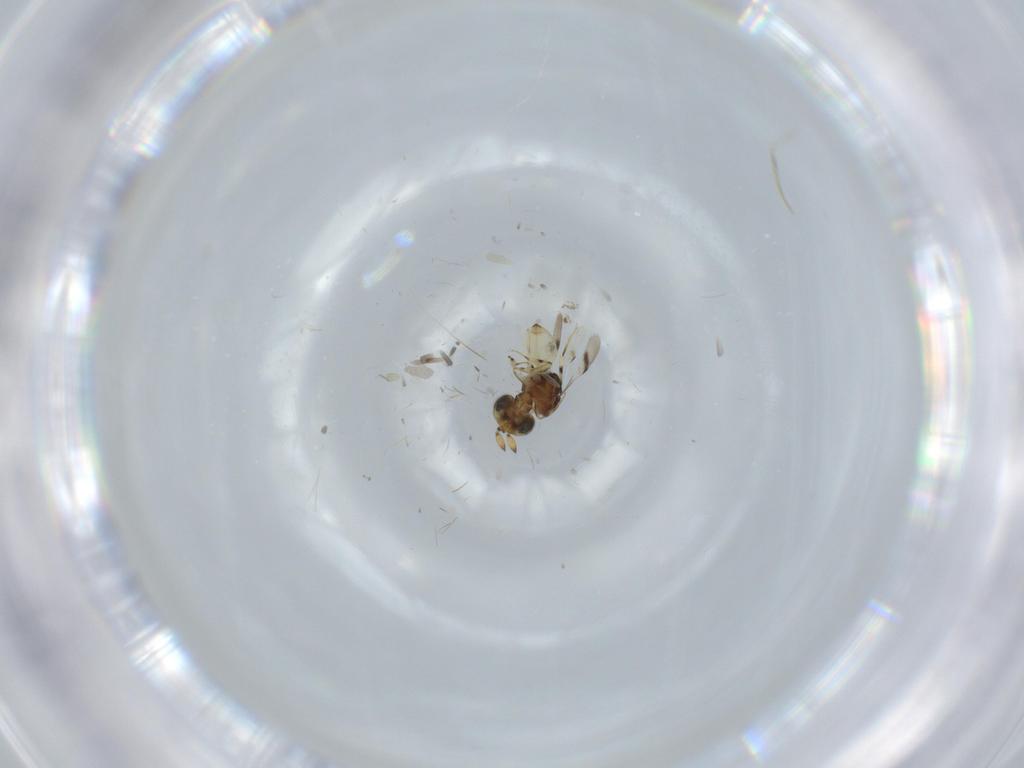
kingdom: Animalia
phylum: Arthropoda
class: Insecta
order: Hymenoptera
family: Scelionidae
